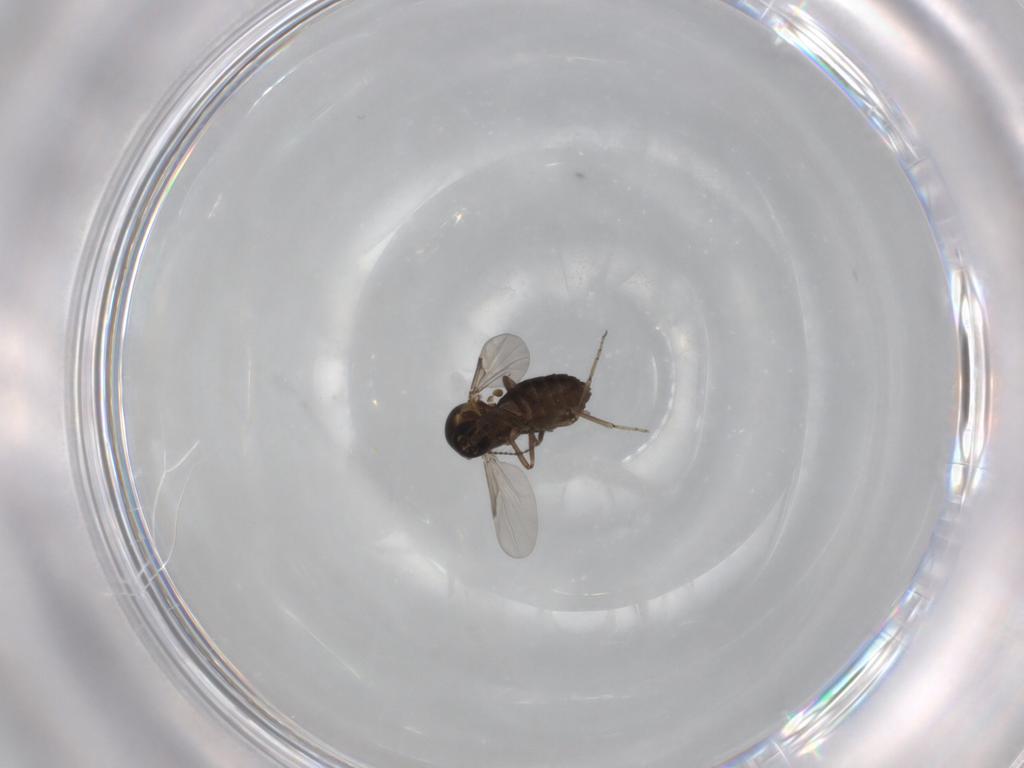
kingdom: Animalia
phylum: Arthropoda
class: Insecta
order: Diptera
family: Ceratopogonidae
